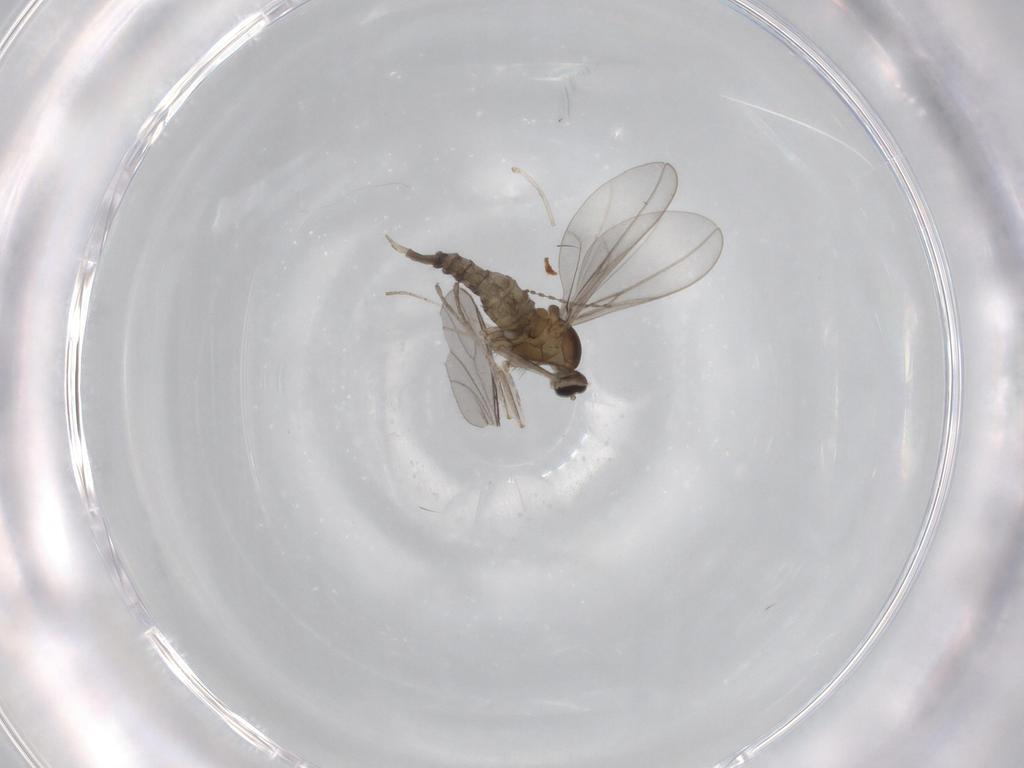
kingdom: Animalia
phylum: Arthropoda
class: Insecta
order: Diptera
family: Cecidomyiidae
